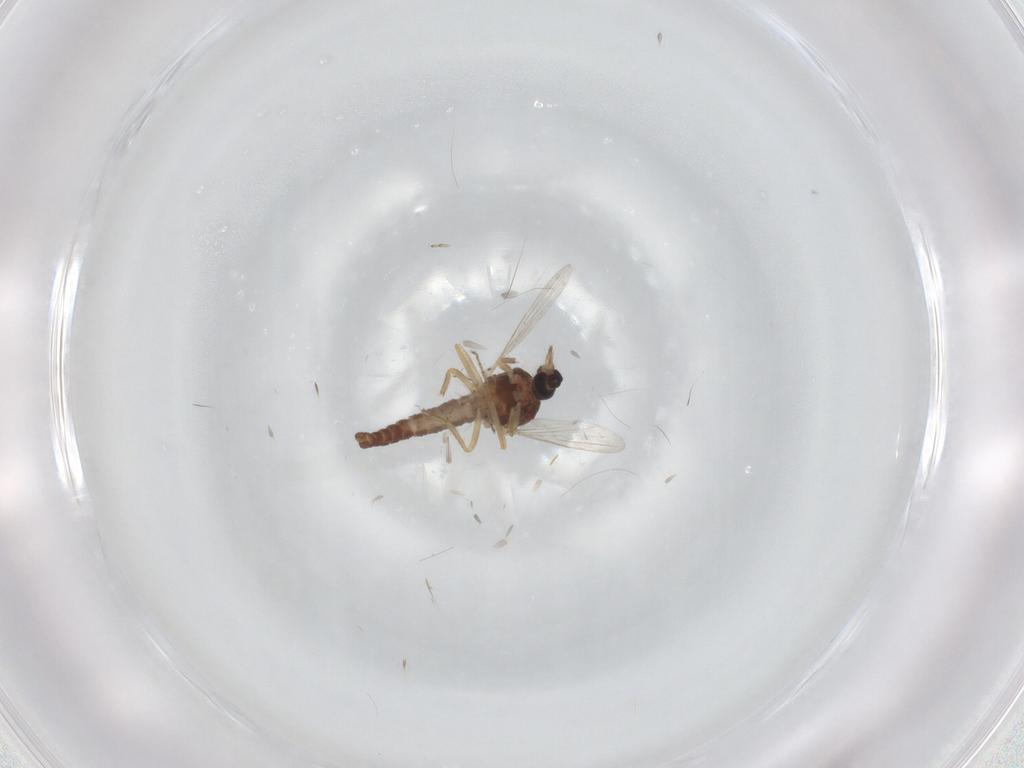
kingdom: Animalia
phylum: Arthropoda
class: Insecta
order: Diptera
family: Ceratopogonidae
